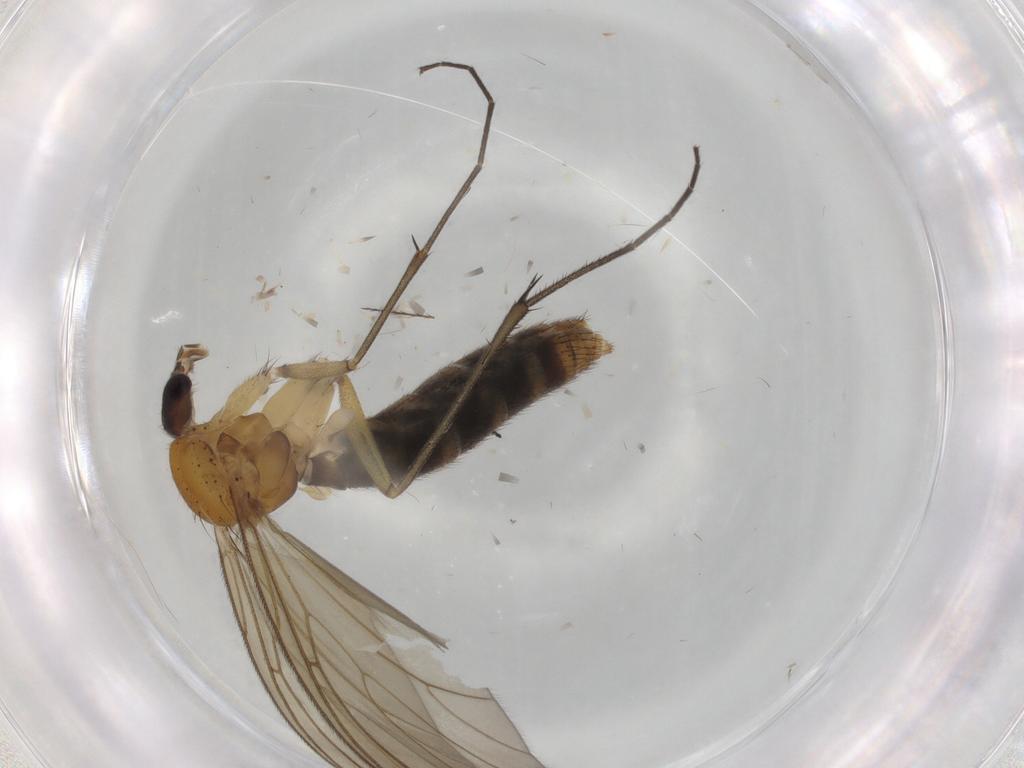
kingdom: Animalia
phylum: Arthropoda
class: Insecta
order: Diptera
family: Mycetophilidae
